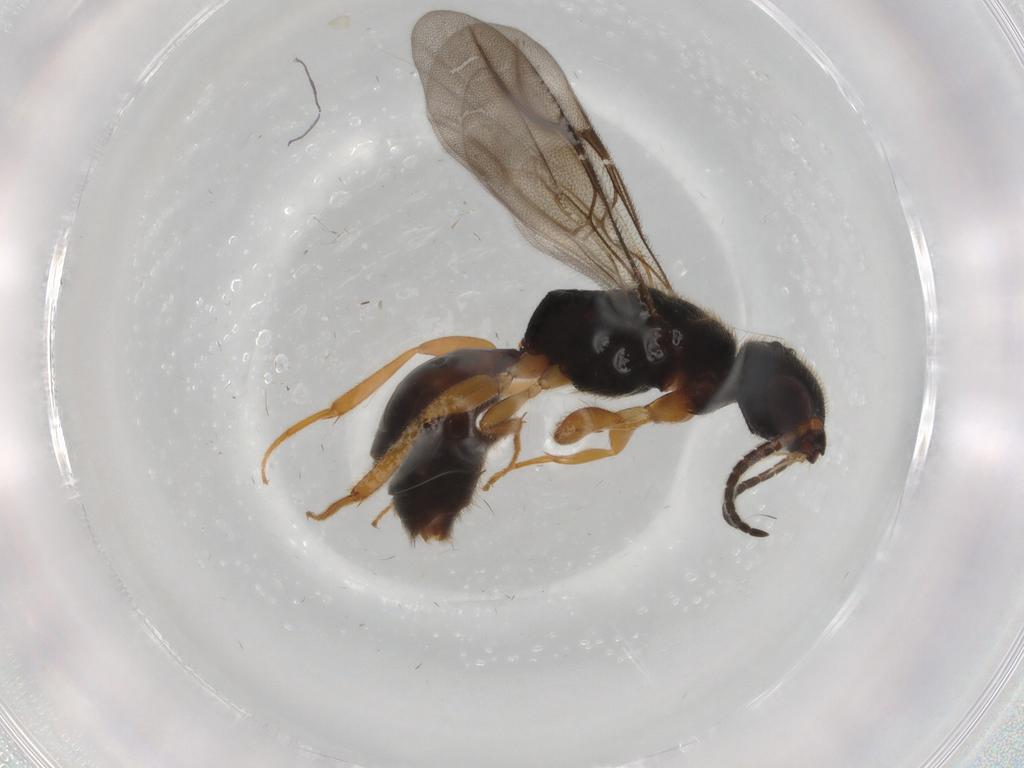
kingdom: Animalia
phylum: Arthropoda
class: Insecta
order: Hymenoptera
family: Bethylidae
